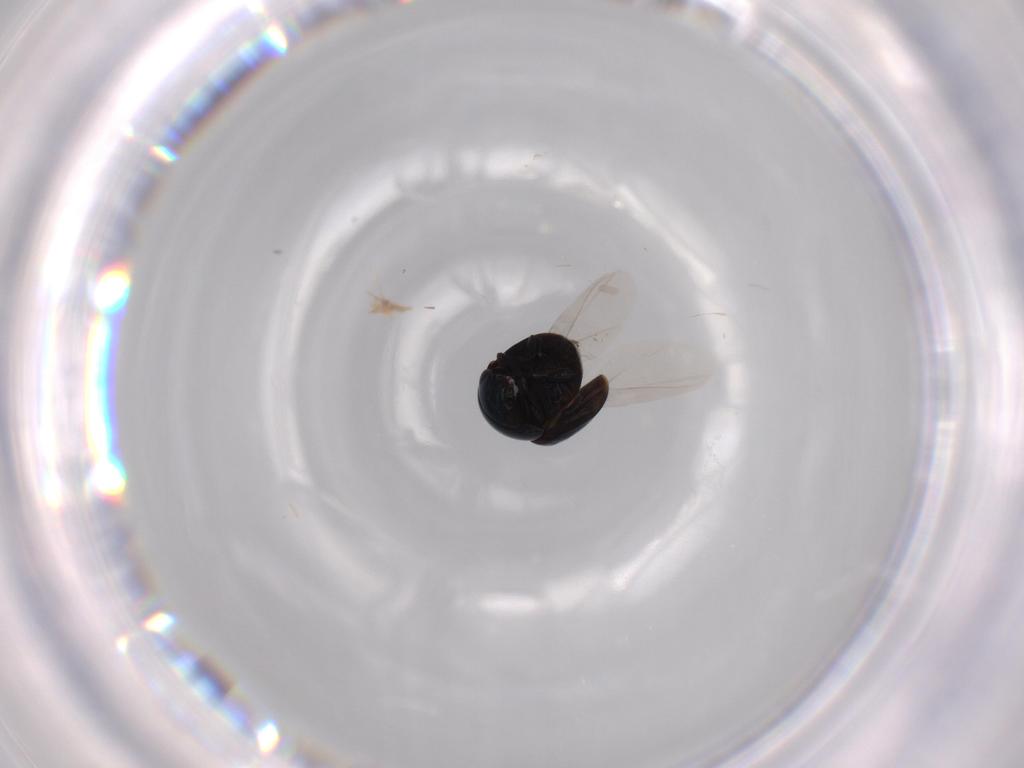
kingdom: Animalia
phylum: Arthropoda
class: Insecta
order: Coleoptera
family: Cybocephalidae
